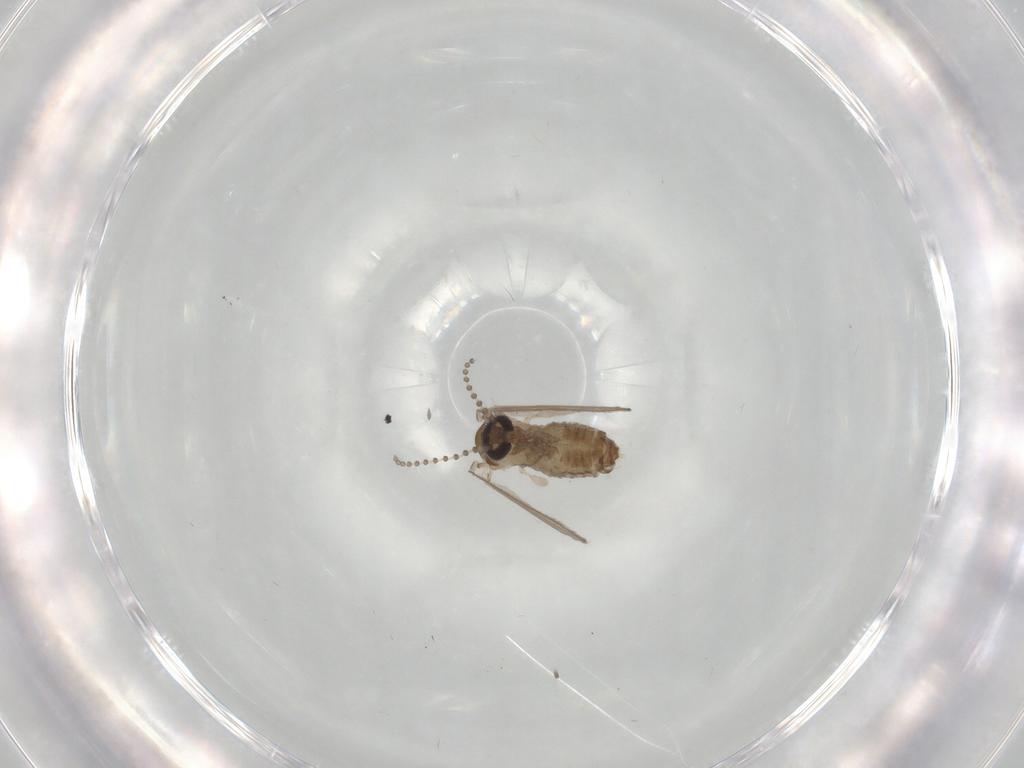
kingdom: Animalia
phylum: Arthropoda
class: Insecta
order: Diptera
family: Psychodidae
